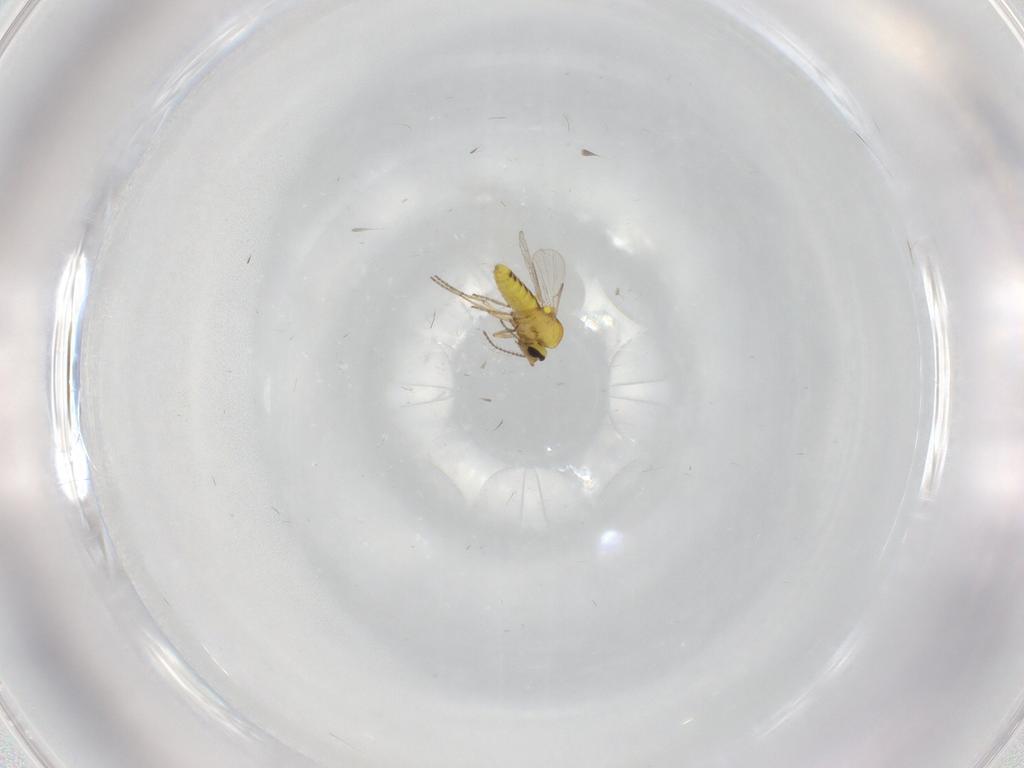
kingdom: Animalia
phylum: Arthropoda
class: Insecta
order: Diptera
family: Ceratopogonidae
